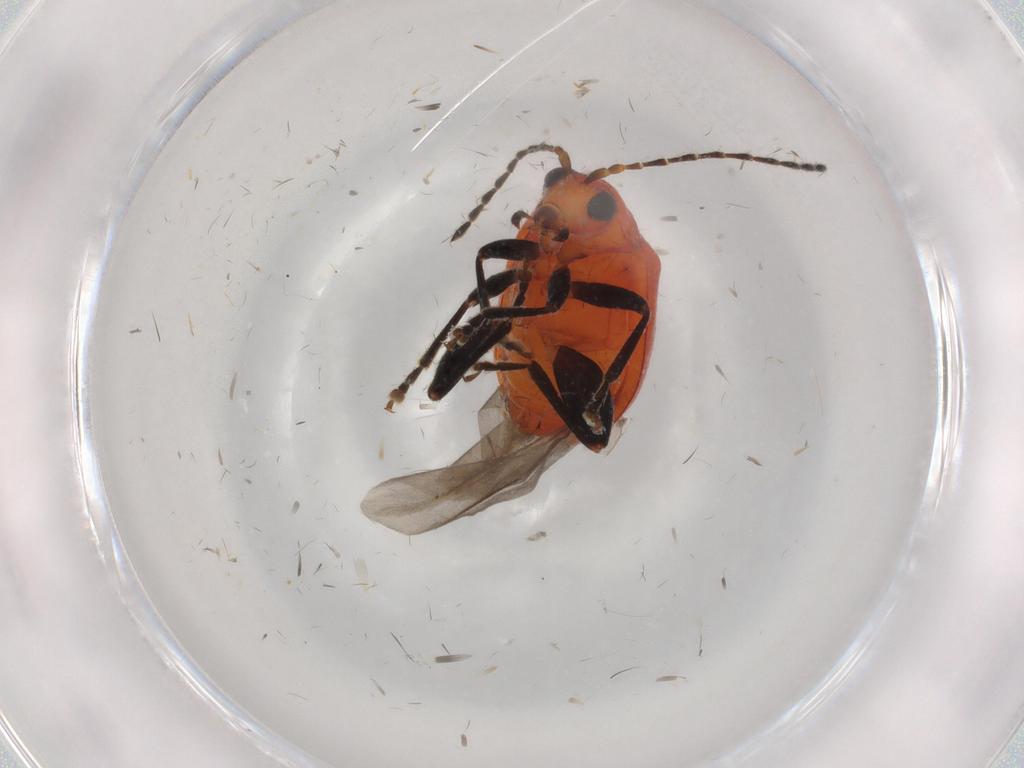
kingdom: Animalia
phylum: Arthropoda
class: Insecta
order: Coleoptera
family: Chrysomelidae
